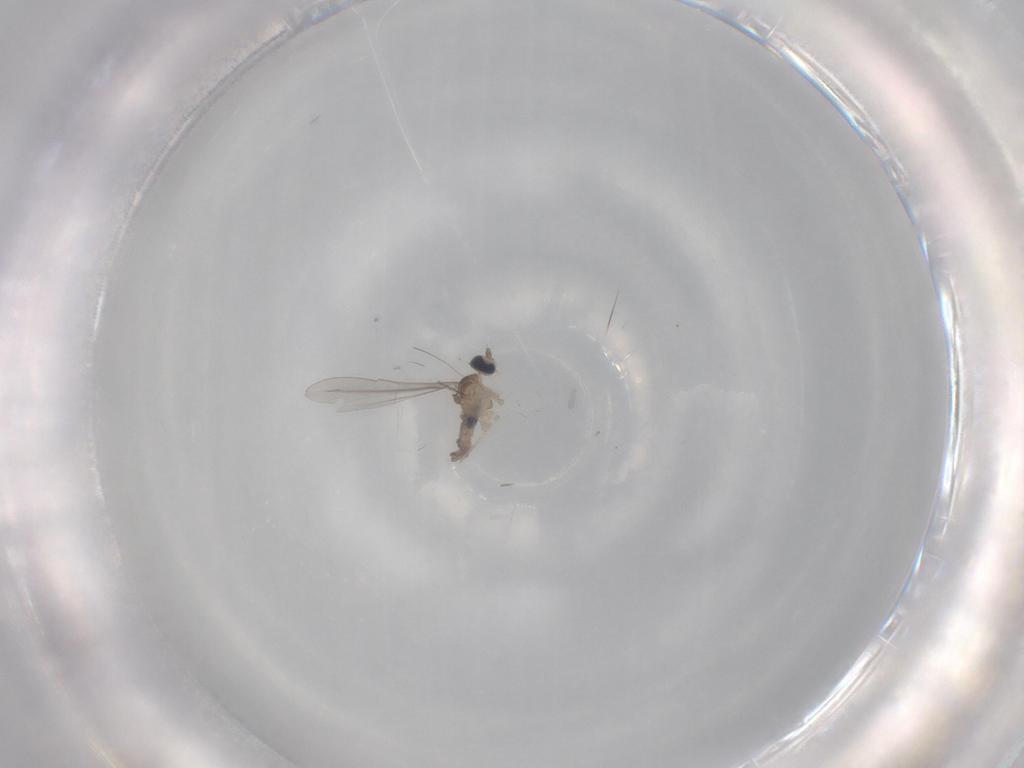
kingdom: Animalia
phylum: Arthropoda
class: Insecta
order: Diptera
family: Cecidomyiidae
